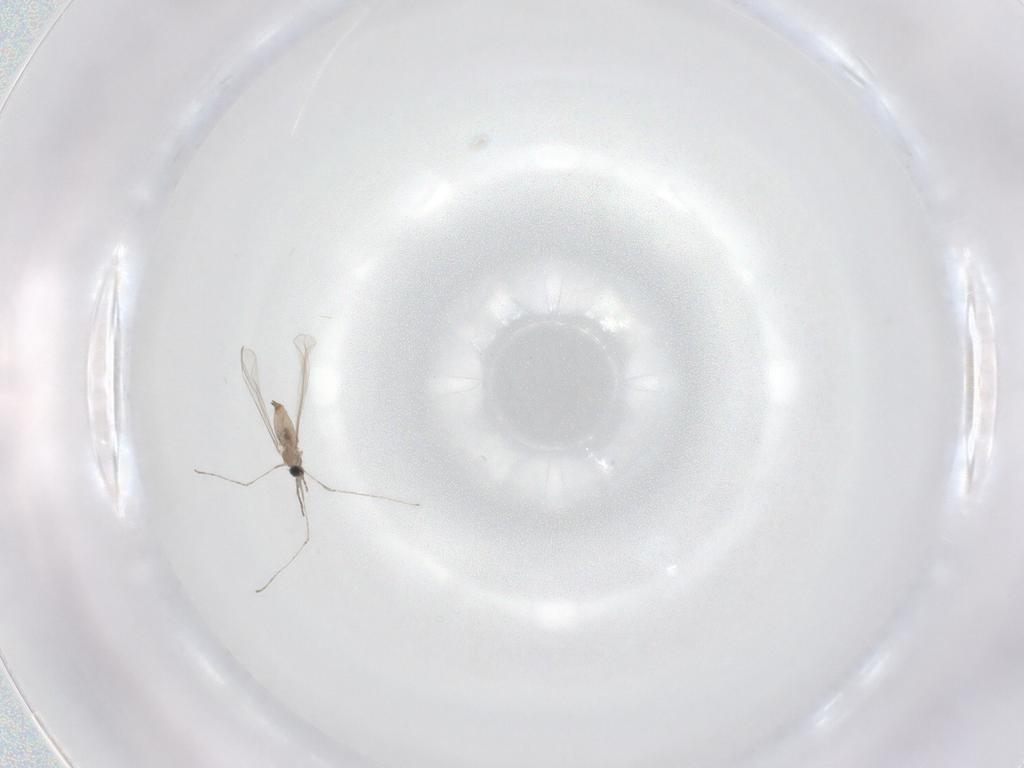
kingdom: Animalia
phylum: Arthropoda
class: Insecta
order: Diptera
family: Cecidomyiidae
